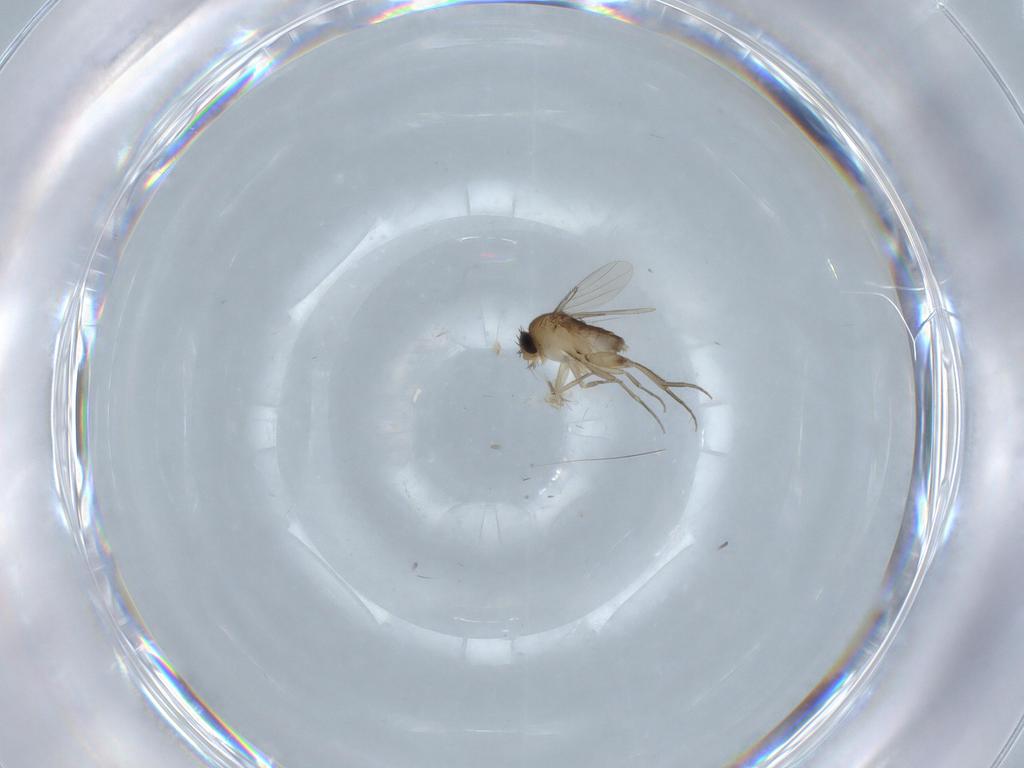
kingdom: Animalia
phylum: Arthropoda
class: Insecta
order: Diptera
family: Cecidomyiidae
